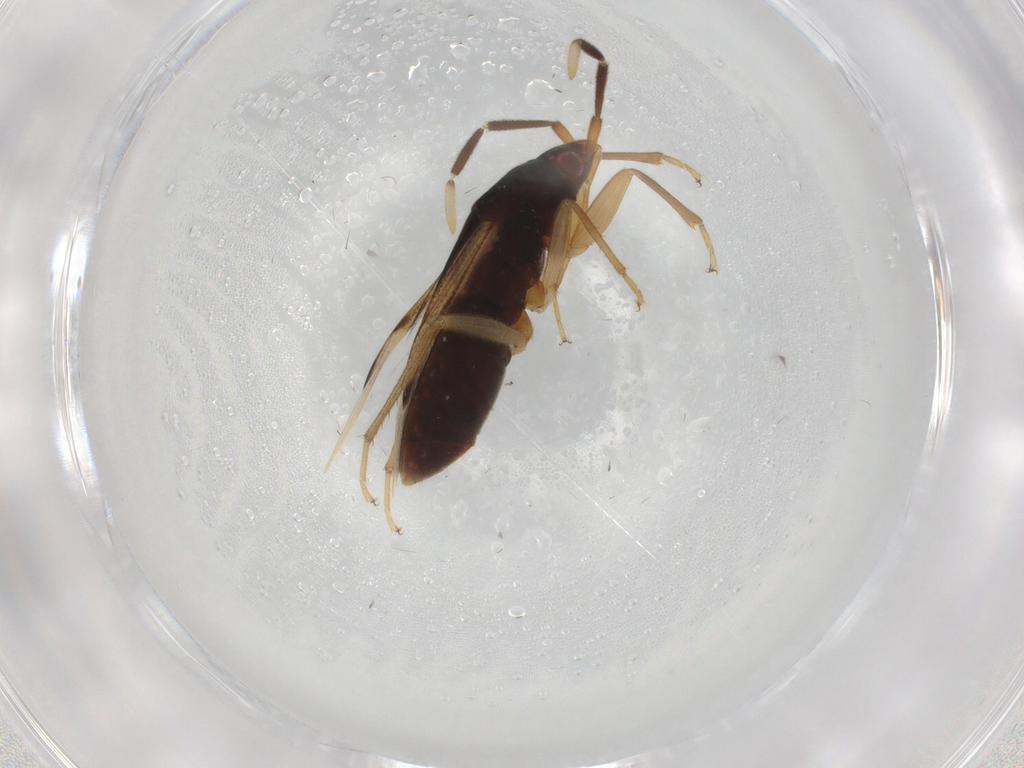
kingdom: Animalia
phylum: Arthropoda
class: Insecta
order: Hemiptera
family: Rhyparochromidae
